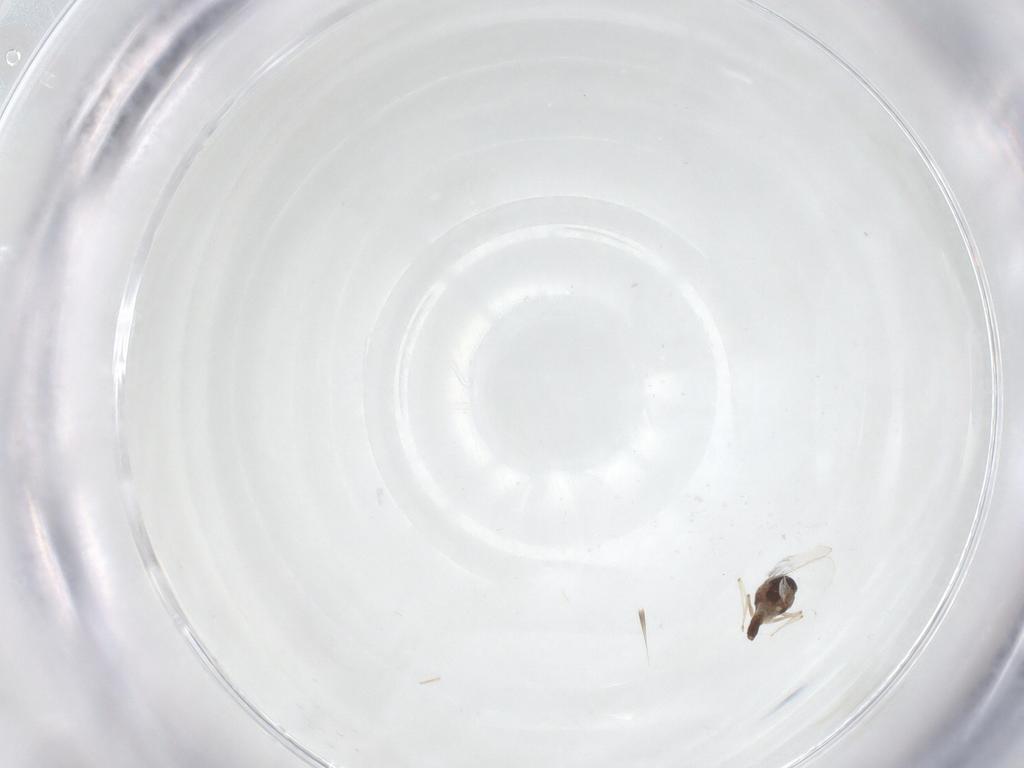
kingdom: Animalia
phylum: Arthropoda
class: Insecta
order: Diptera
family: Chironomidae
